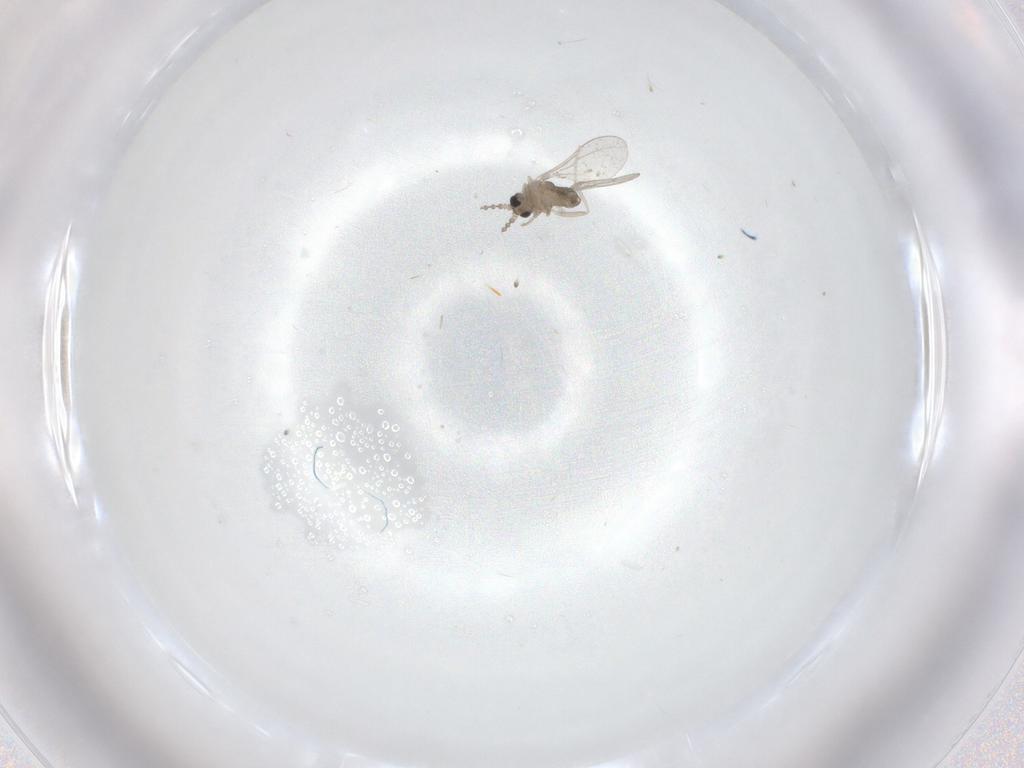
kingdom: Animalia
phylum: Arthropoda
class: Insecta
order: Diptera
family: Cecidomyiidae
